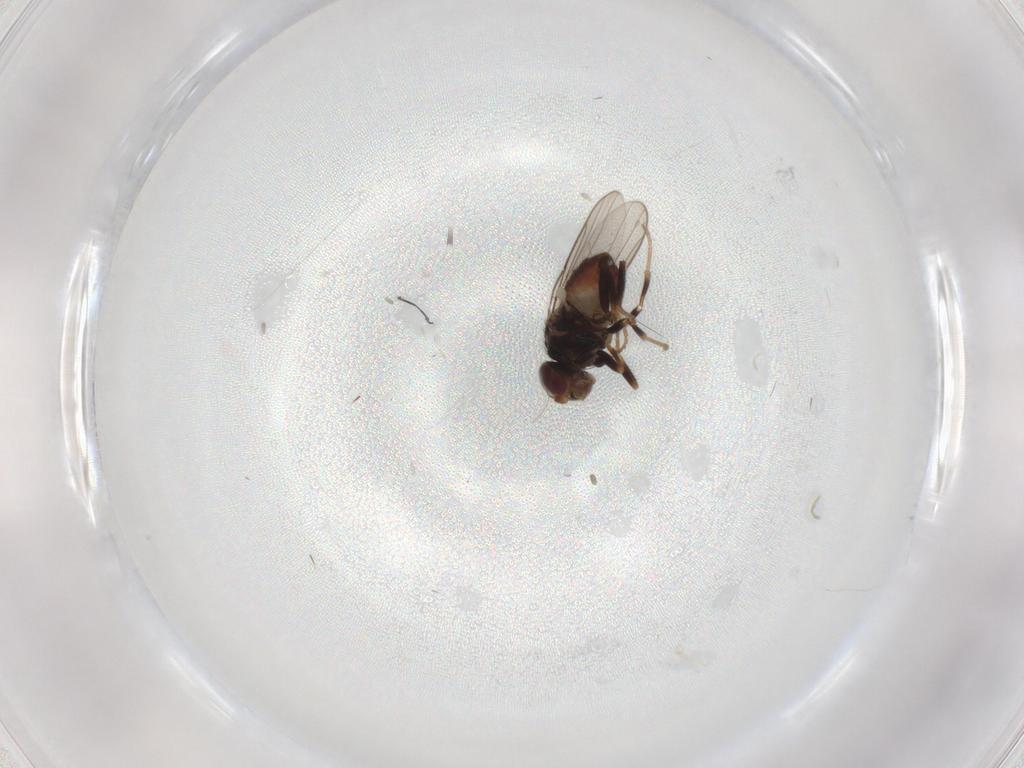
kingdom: Animalia
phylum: Arthropoda
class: Insecta
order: Diptera
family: Chloropidae
